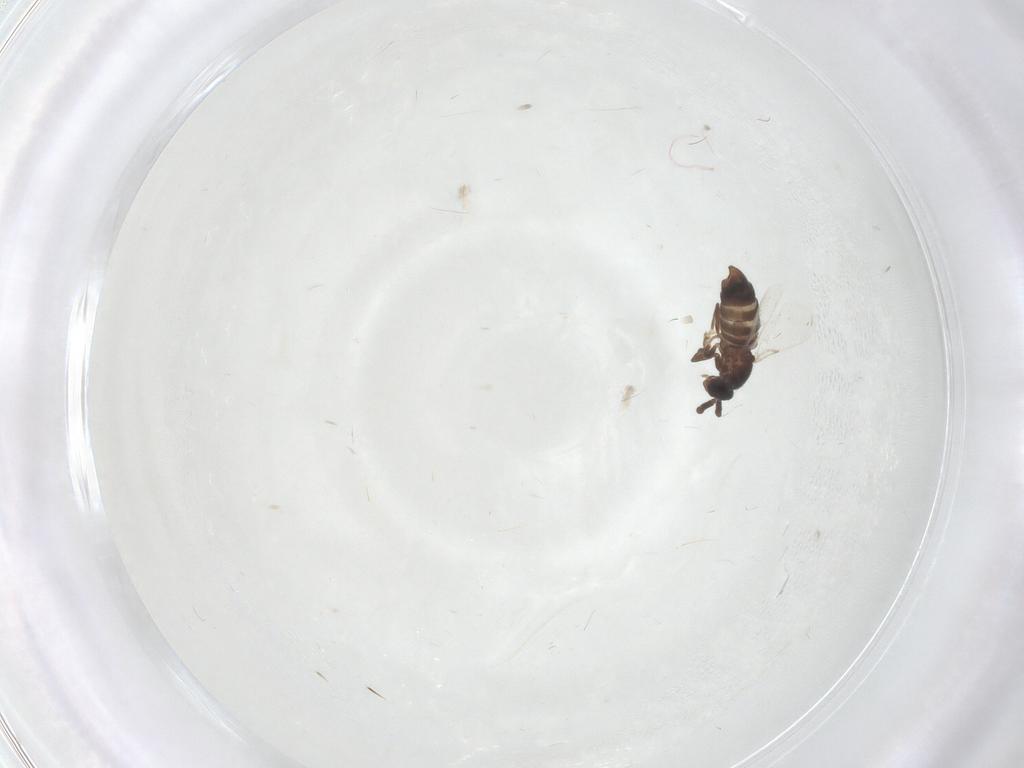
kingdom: Animalia
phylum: Arthropoda
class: Insecta
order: Diptera
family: Scatopsidae
